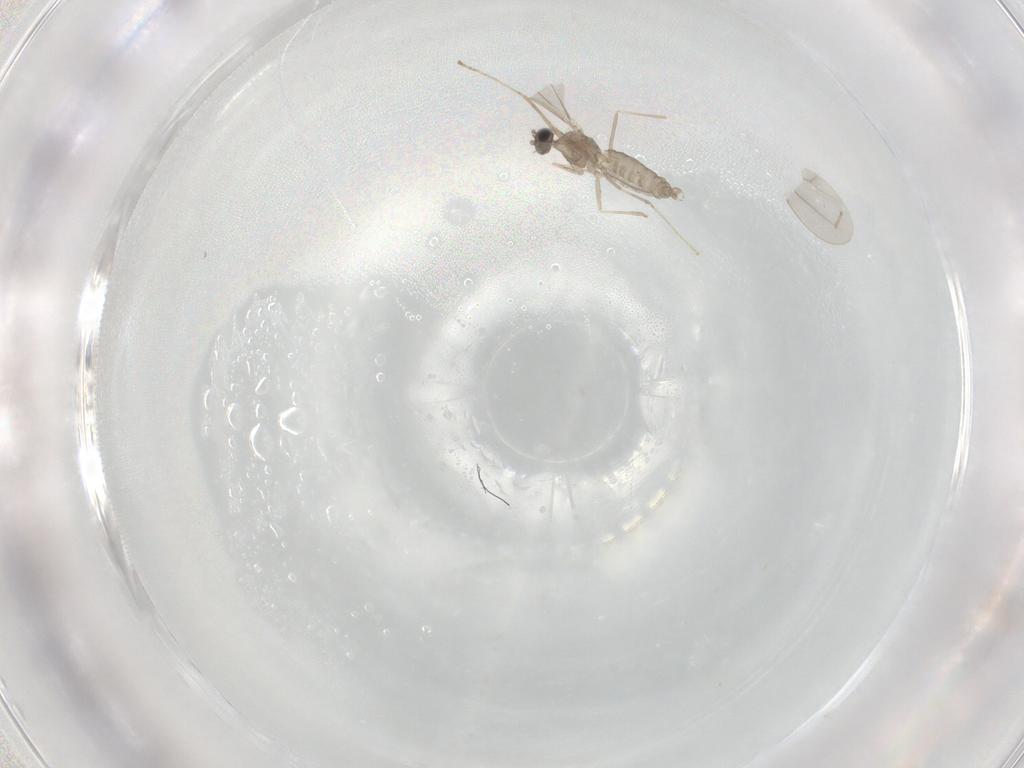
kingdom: Animalia
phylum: Arthropoda
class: Insecta
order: Diptera
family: Cecidomyiidae
